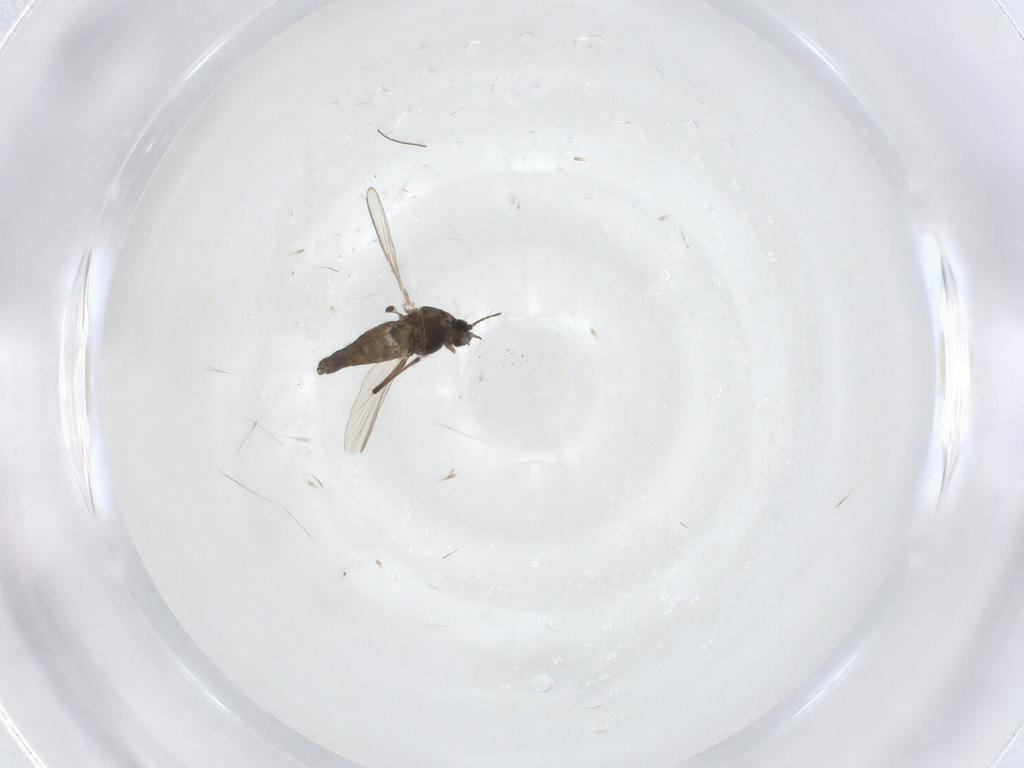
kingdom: Animalia
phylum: Arthropoda
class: Insecta
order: Diptera
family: Chironomidae
